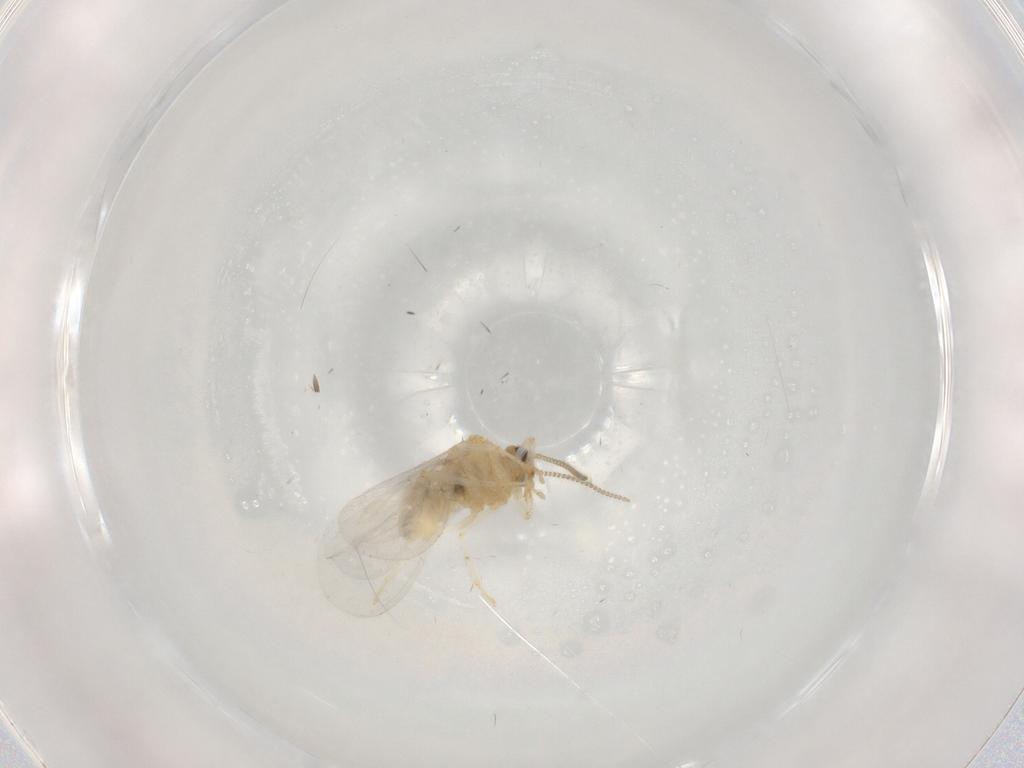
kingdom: Animalia
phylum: Arthropoda
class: Insecta
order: Neuroptera
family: Coniopterygidae
